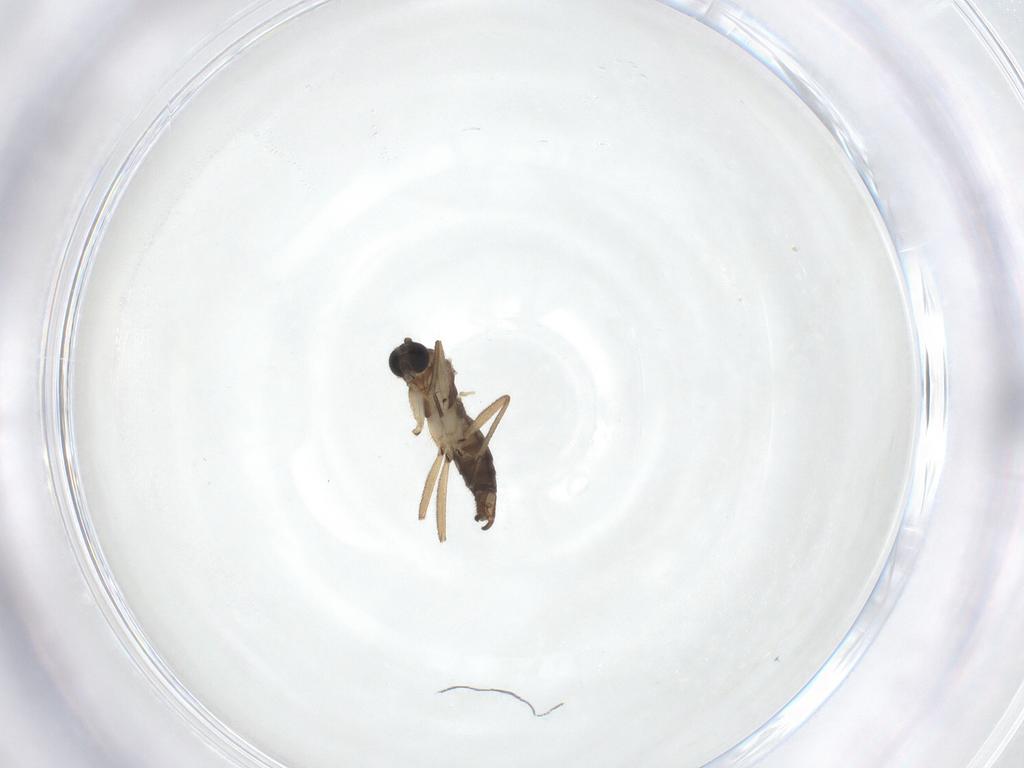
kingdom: Animalia
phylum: Arthropoda
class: Insecta
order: Diptera
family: Sciaridae
